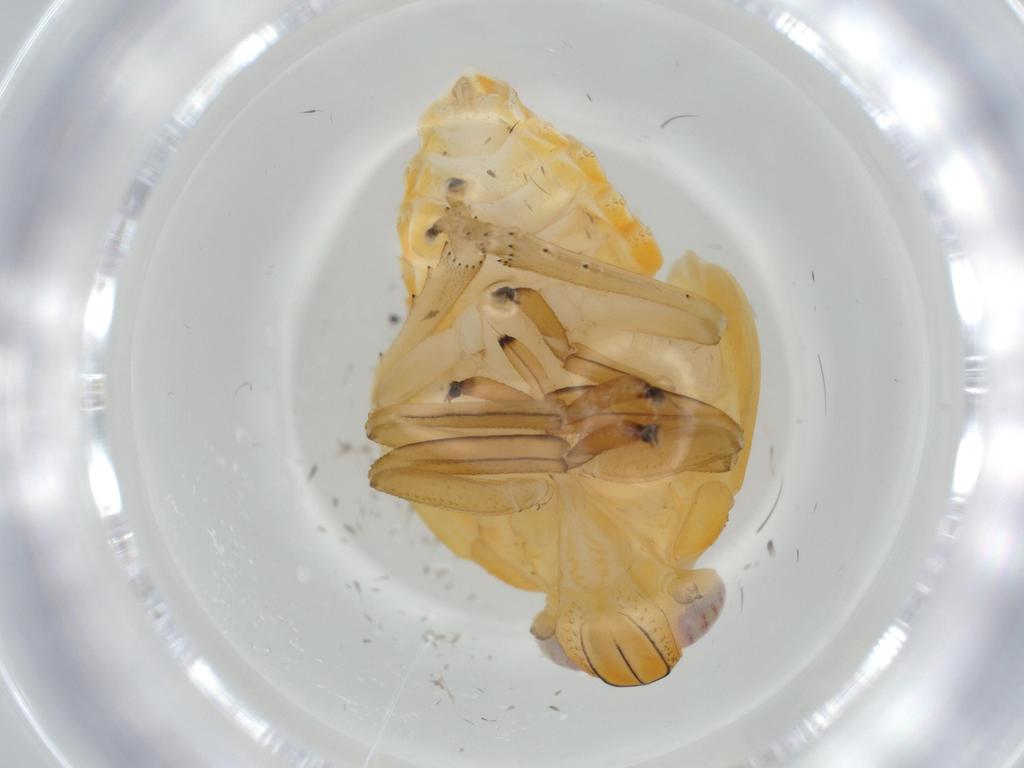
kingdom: Animalia
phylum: Arthropoda
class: Insecta
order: Hemiptera
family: Issidae
